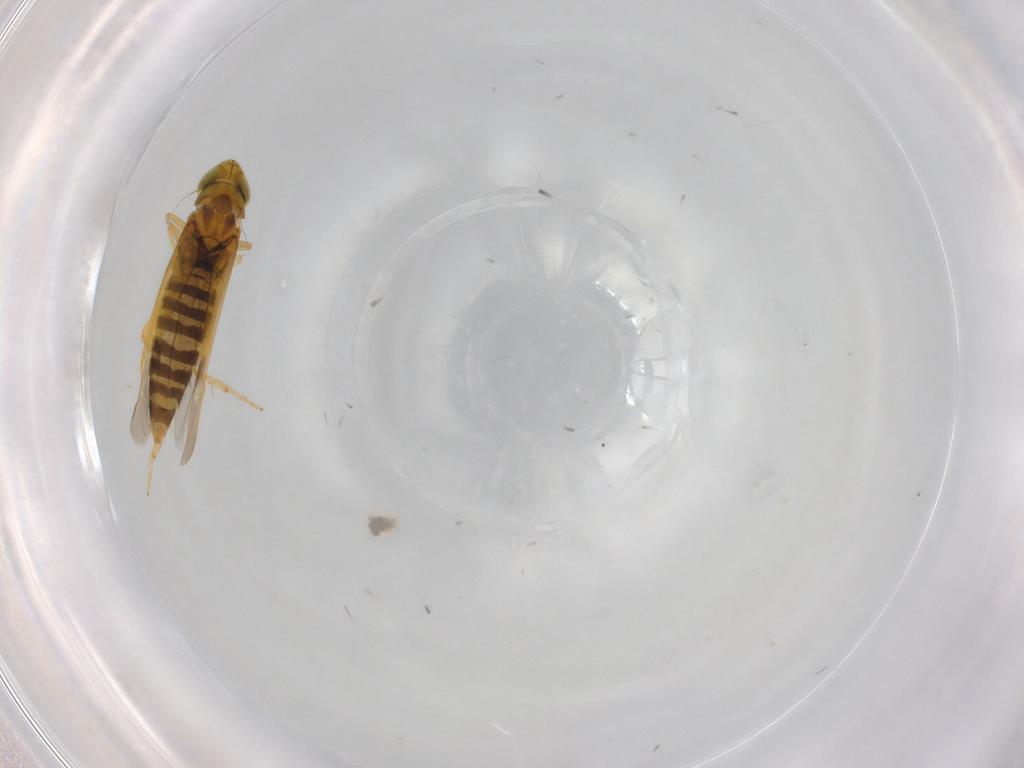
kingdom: Animalia
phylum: Arthropoda
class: Insecta
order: Hemiptera
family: Cicadellidae
